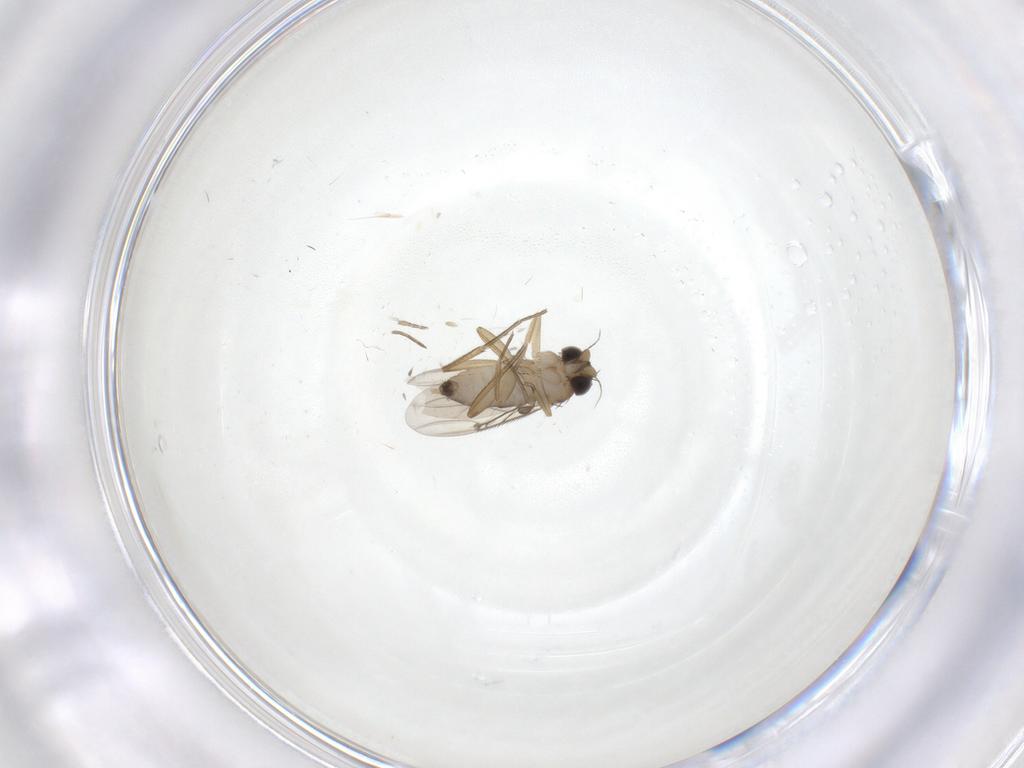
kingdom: Animalia
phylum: Arthropoda
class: Insecta
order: Diptera
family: Phoridae
